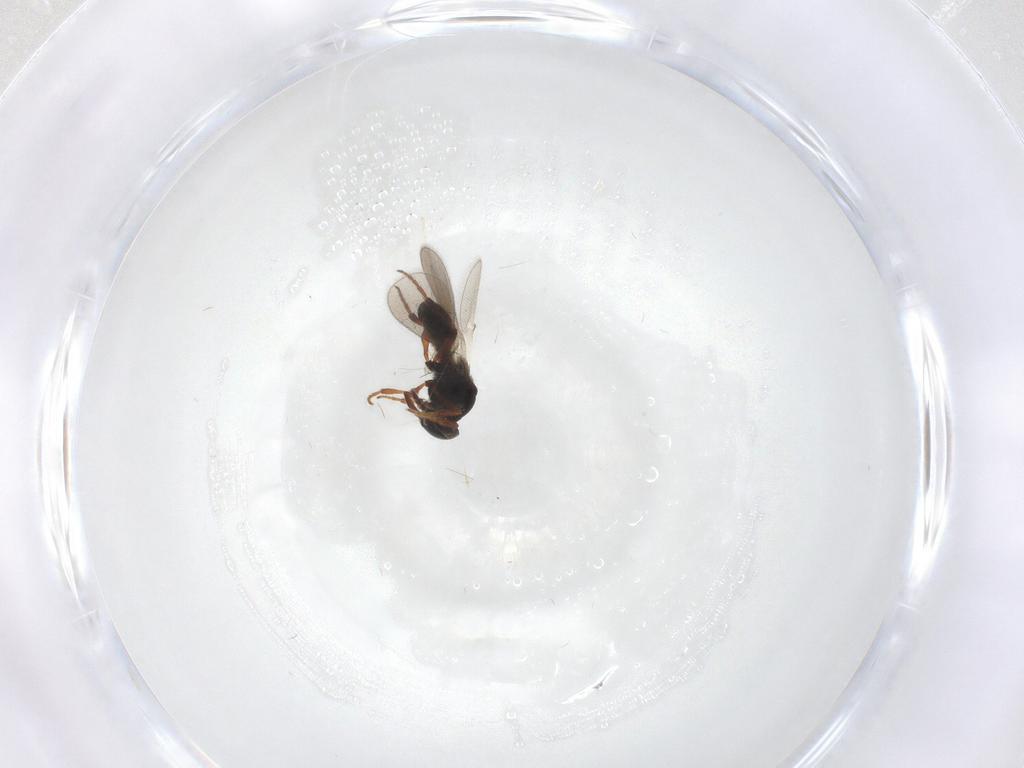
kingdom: Animalia
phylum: Arthropoda
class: Insecta
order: Hymenoptera
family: Platygastridae
